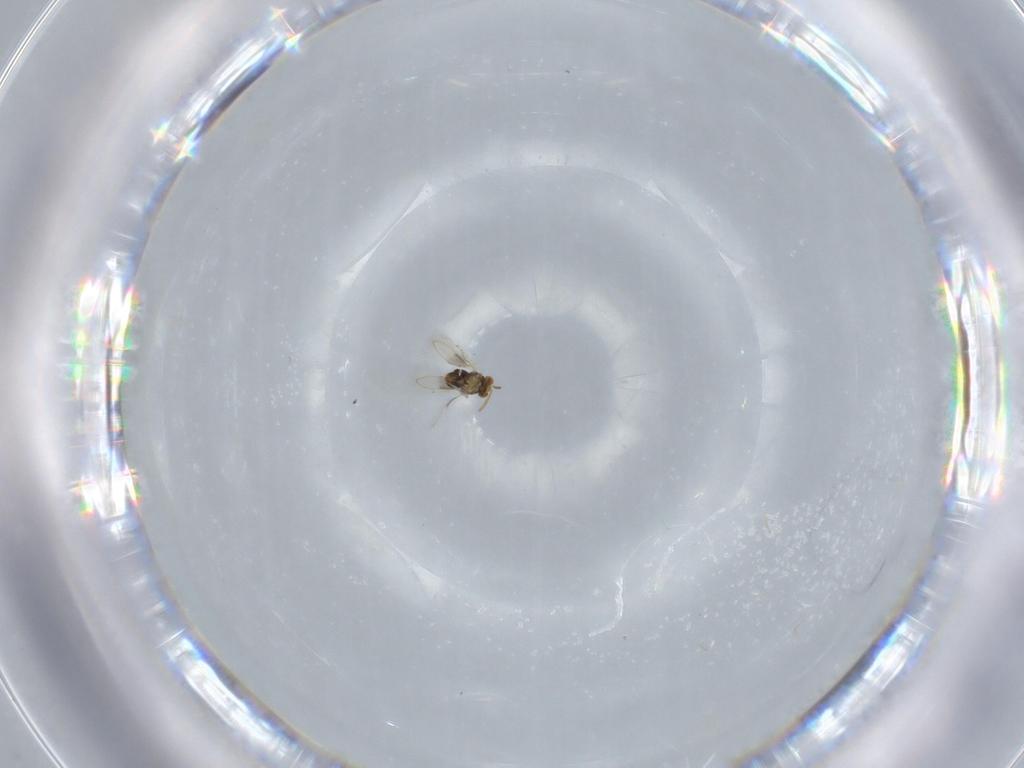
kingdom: Animalia
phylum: Arthropoda
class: Insecta
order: Hymenoptera
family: Aphelinidae
